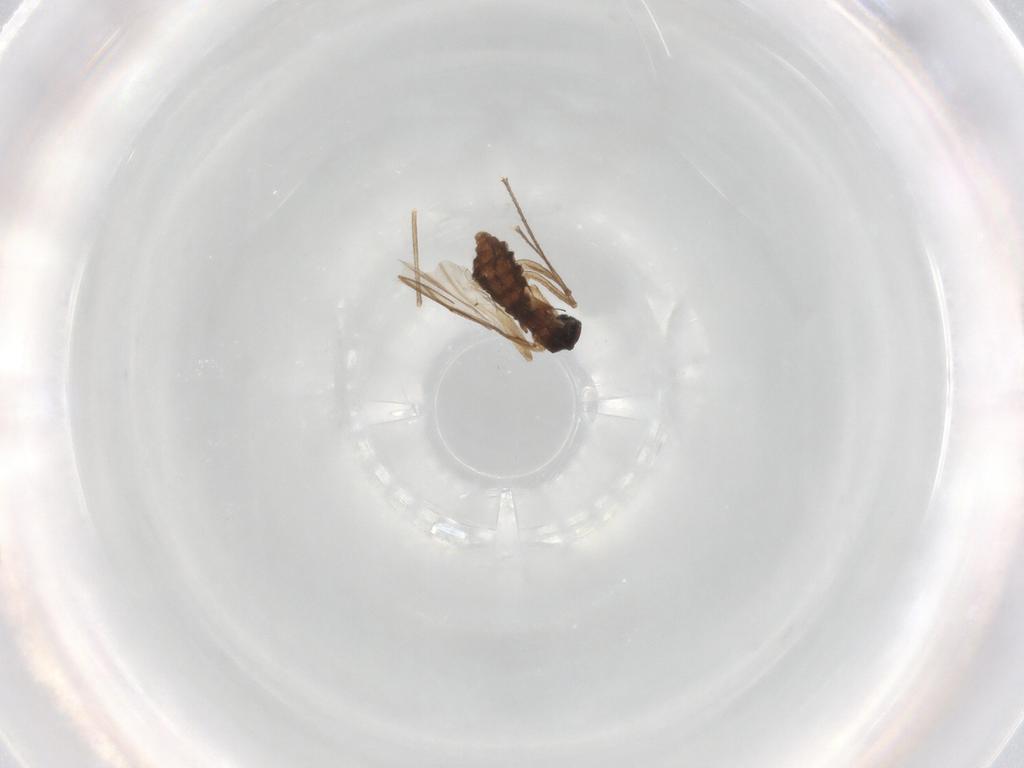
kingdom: Animalia
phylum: Arthropoda
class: Insecta
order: Diptera
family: Sciaridae
